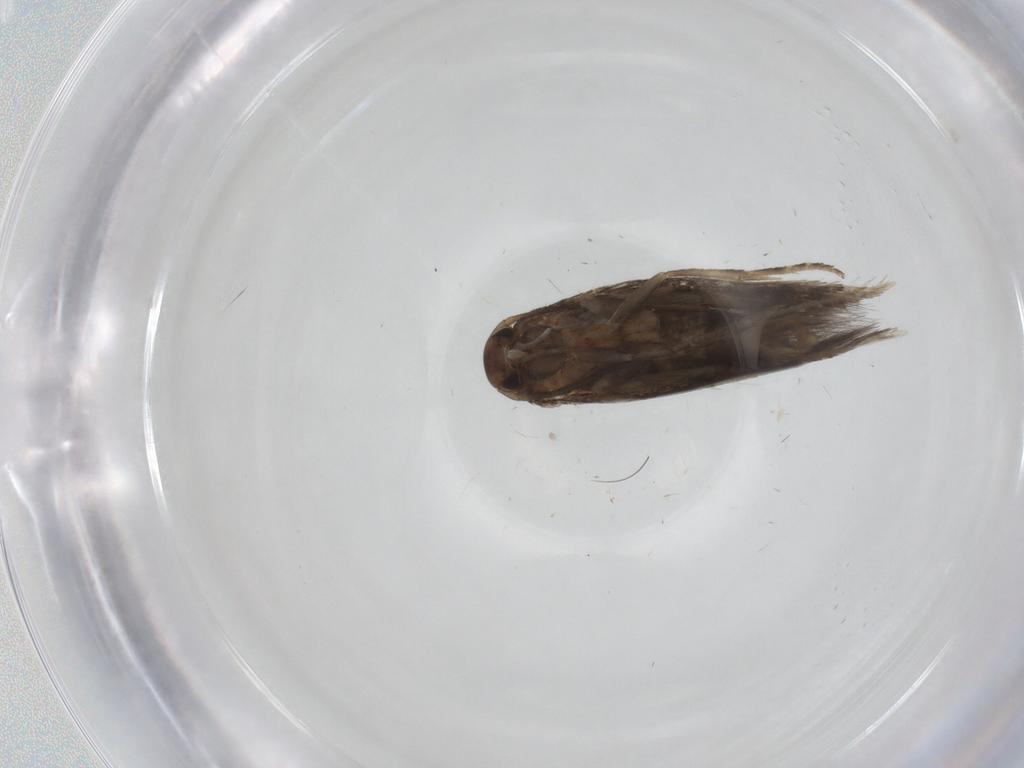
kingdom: Animalia
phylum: Arthropoda
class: Insecta
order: Lepidoptera
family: Elachistidae
